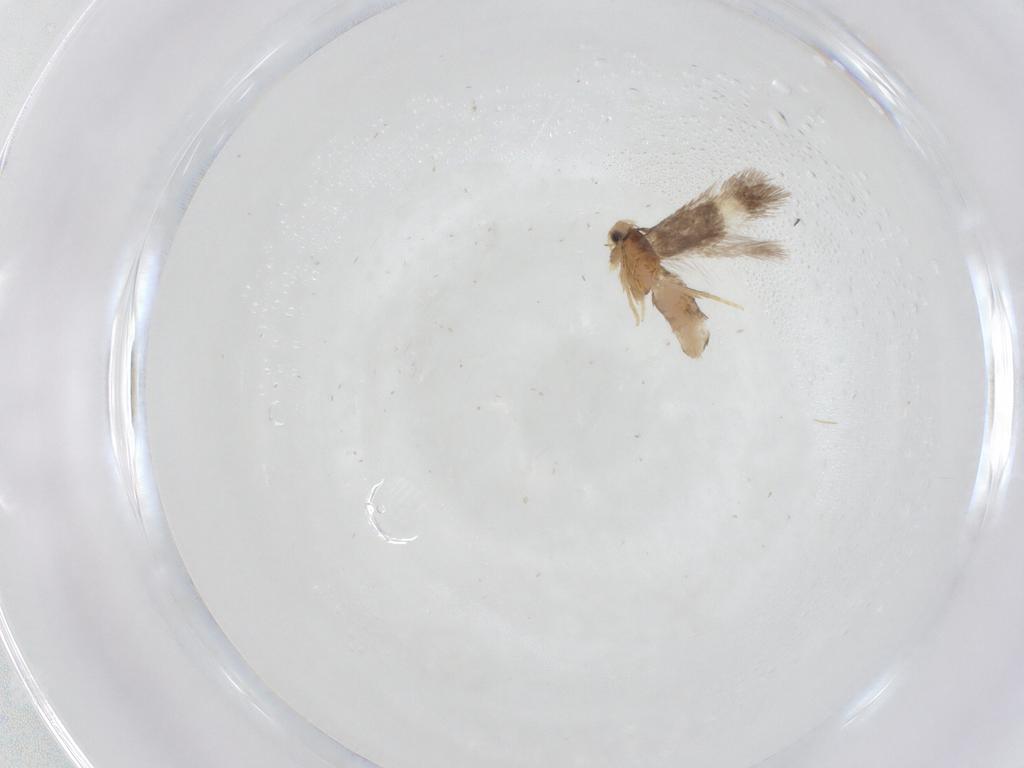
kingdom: Animalia
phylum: Arthropoda
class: Insecta
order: Lepidoptera
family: Nepticulidae
